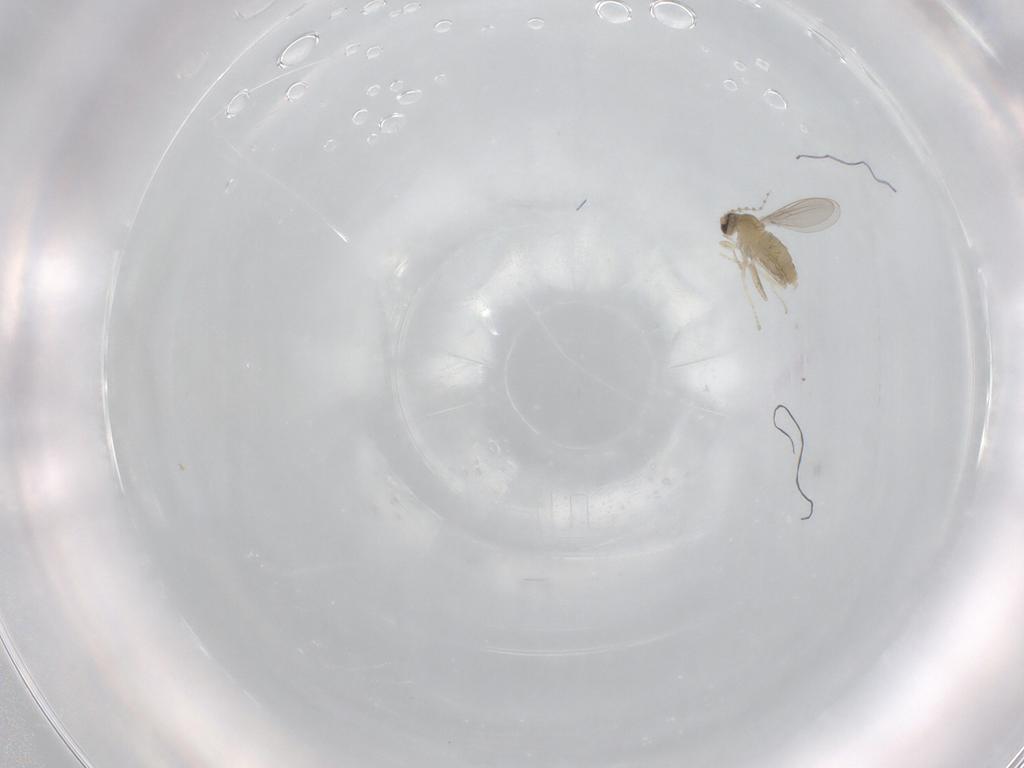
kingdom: Animalia
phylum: Arthropoda
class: Insecta
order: Diptera
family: Cecidomyiidae
